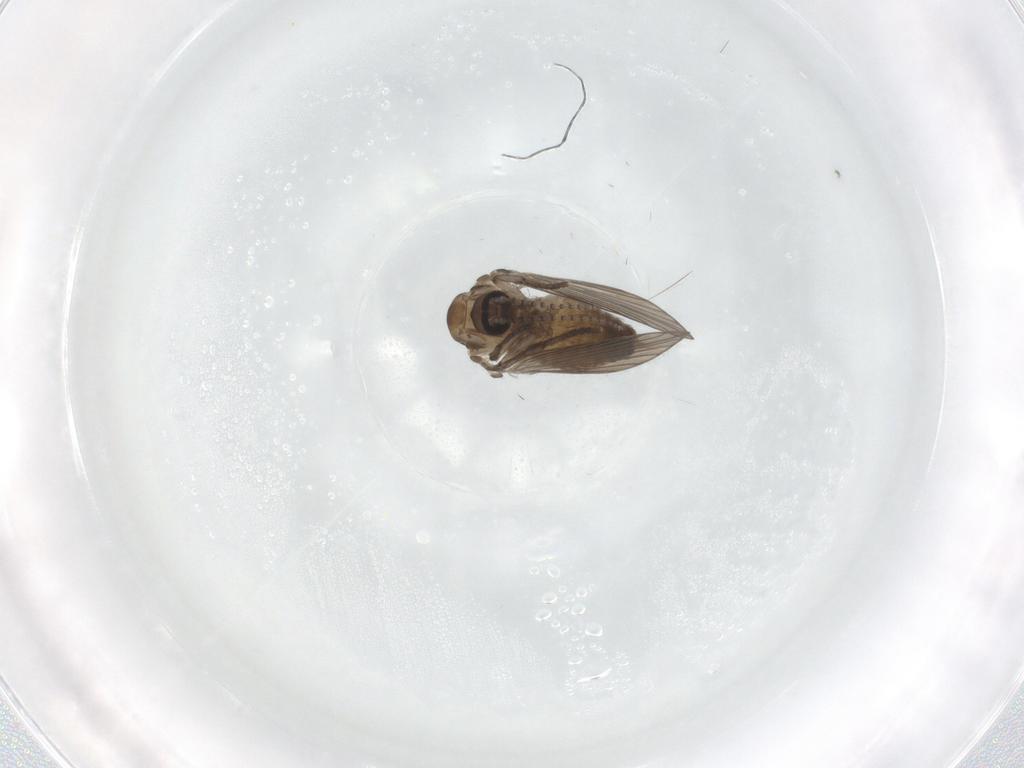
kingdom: Animalia
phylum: Arthropoda
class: Insecta
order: Diptera
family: Psychodidae
